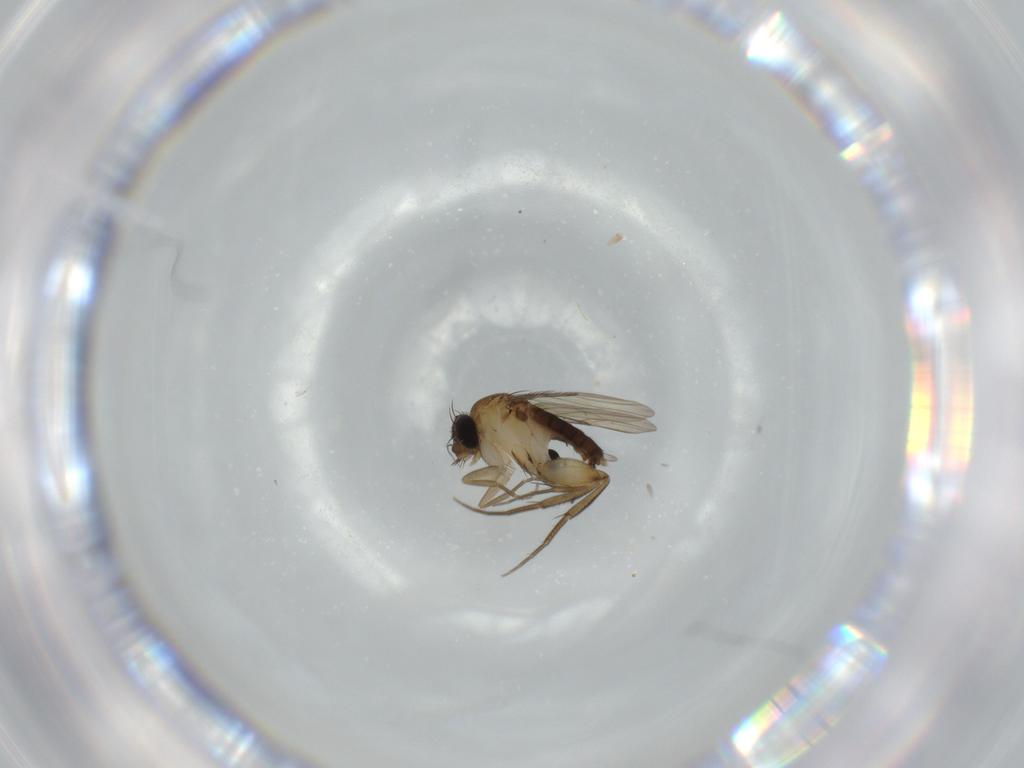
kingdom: Animalia
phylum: Arthropoda
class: Insecta
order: Diptera
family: Phoridae
